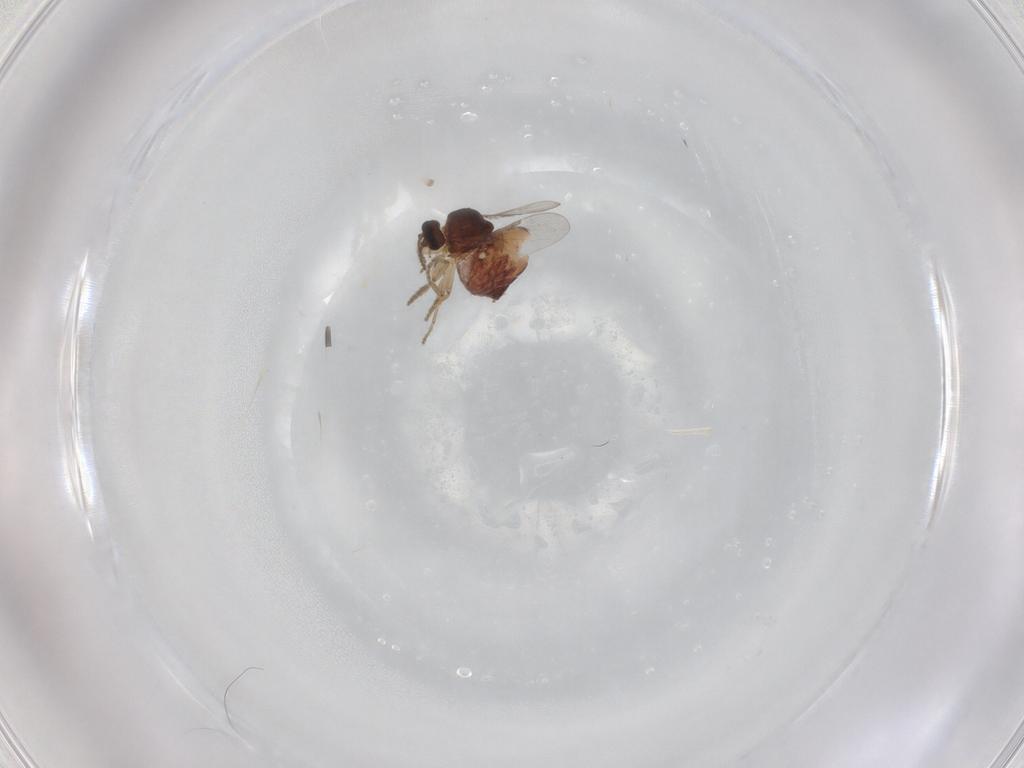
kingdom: Animalia
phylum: Arthropoda
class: Insecta
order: Diptera
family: Ceratopogonidae
